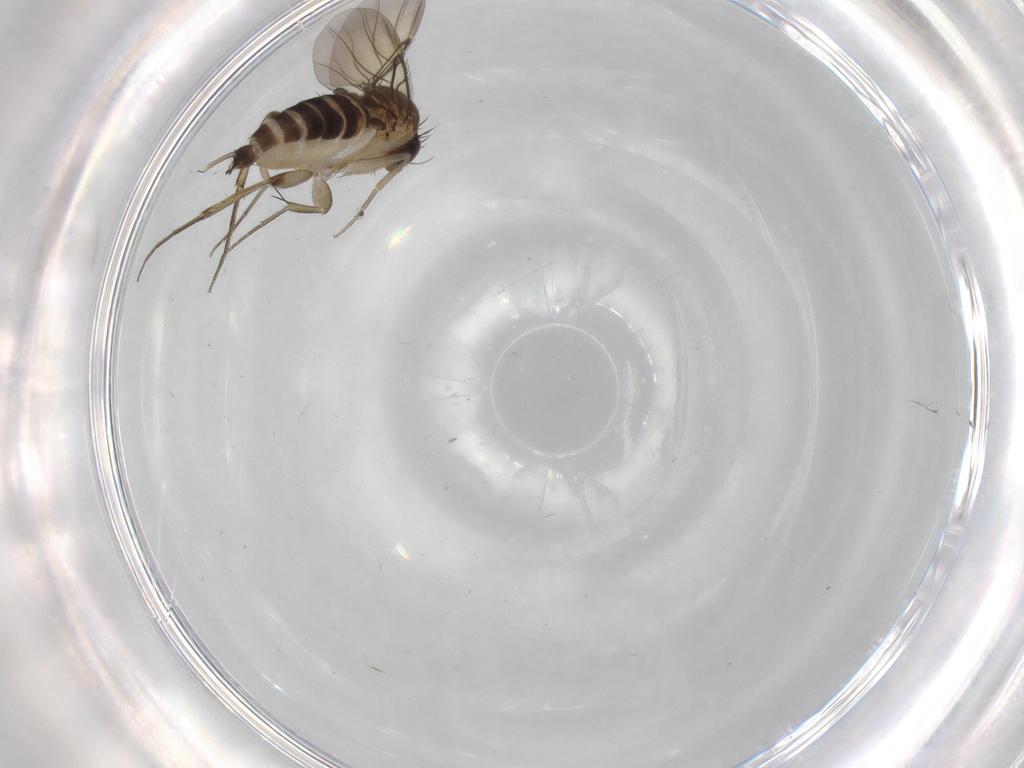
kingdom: Animalia
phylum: Arthropoda
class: Insecta
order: Diptera
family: Phoridae
